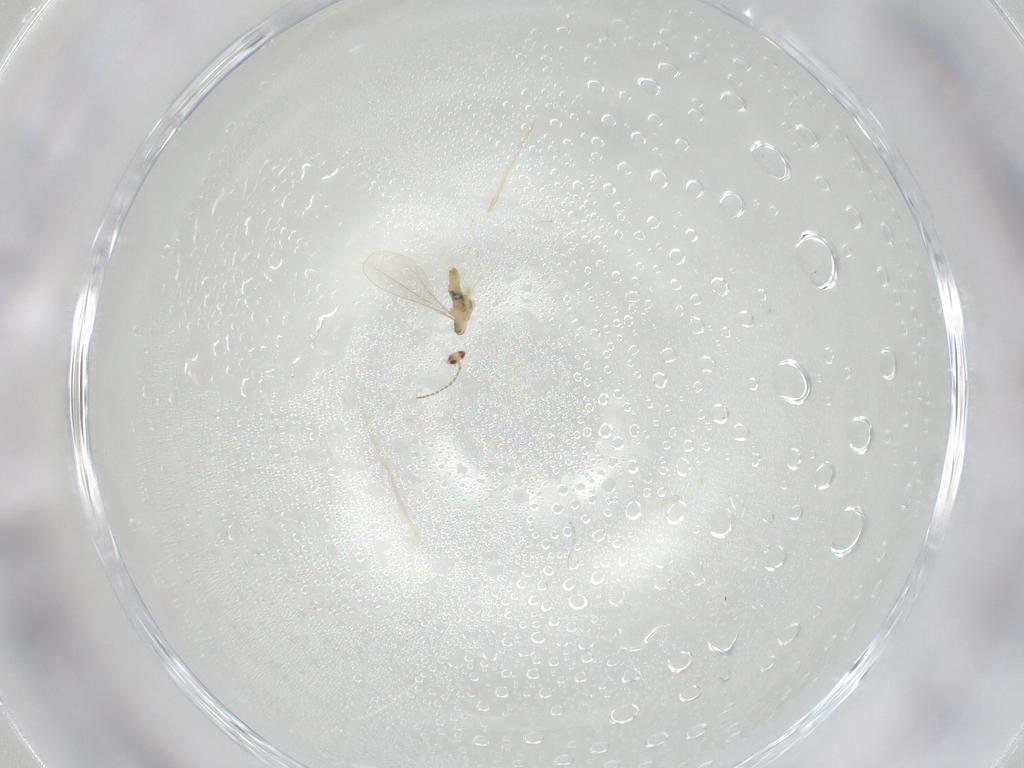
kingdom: Animalia
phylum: Arthropoda
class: Insecta
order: Diptera
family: Cecidomyiidae
